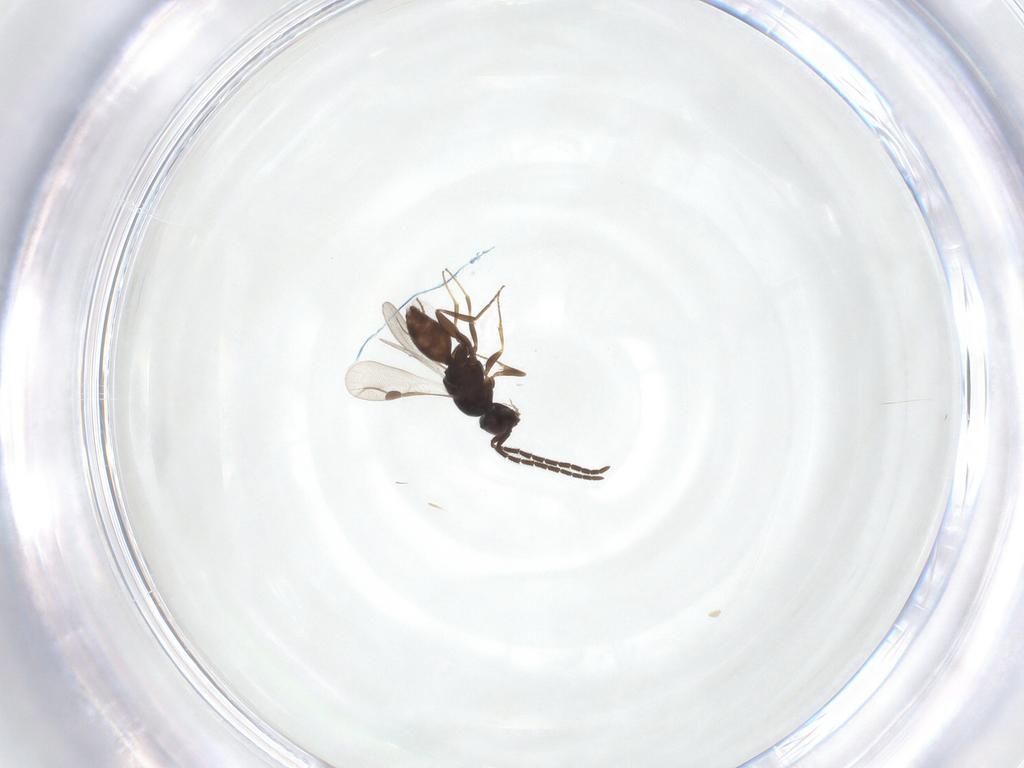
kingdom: Animalia
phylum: Arthropoda
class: Insecta
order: Hymenoptera
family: Megaspilidae
